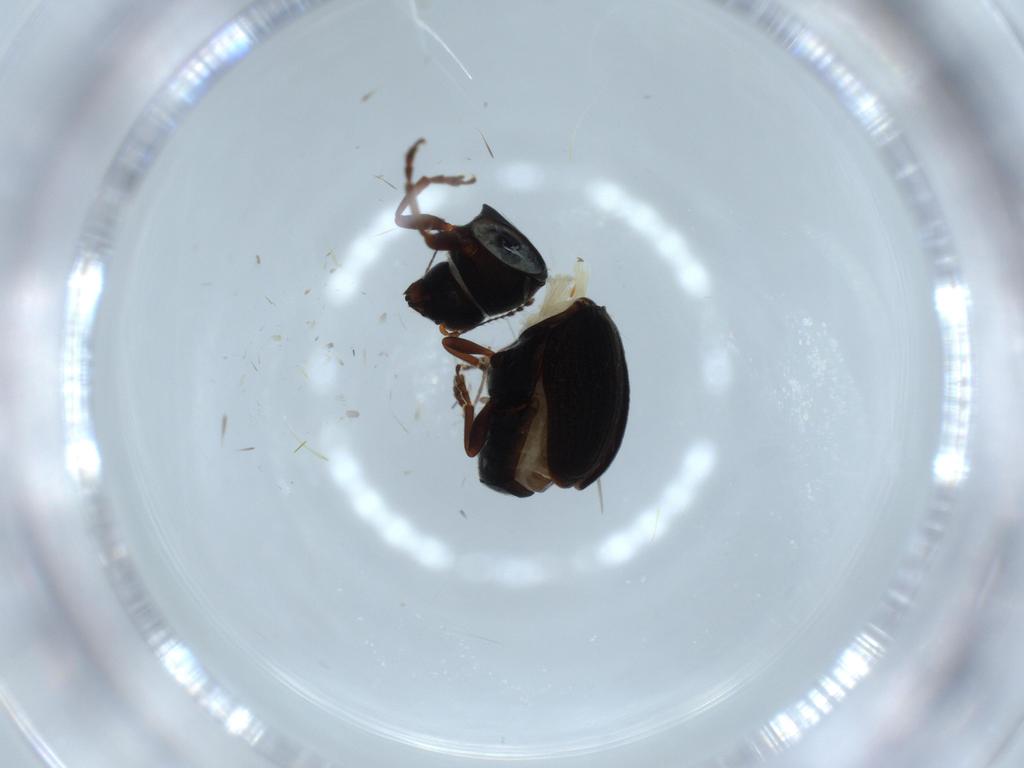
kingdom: Animalia
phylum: Arthropoda
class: Insecta
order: Coleoptera
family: Anthribidae
